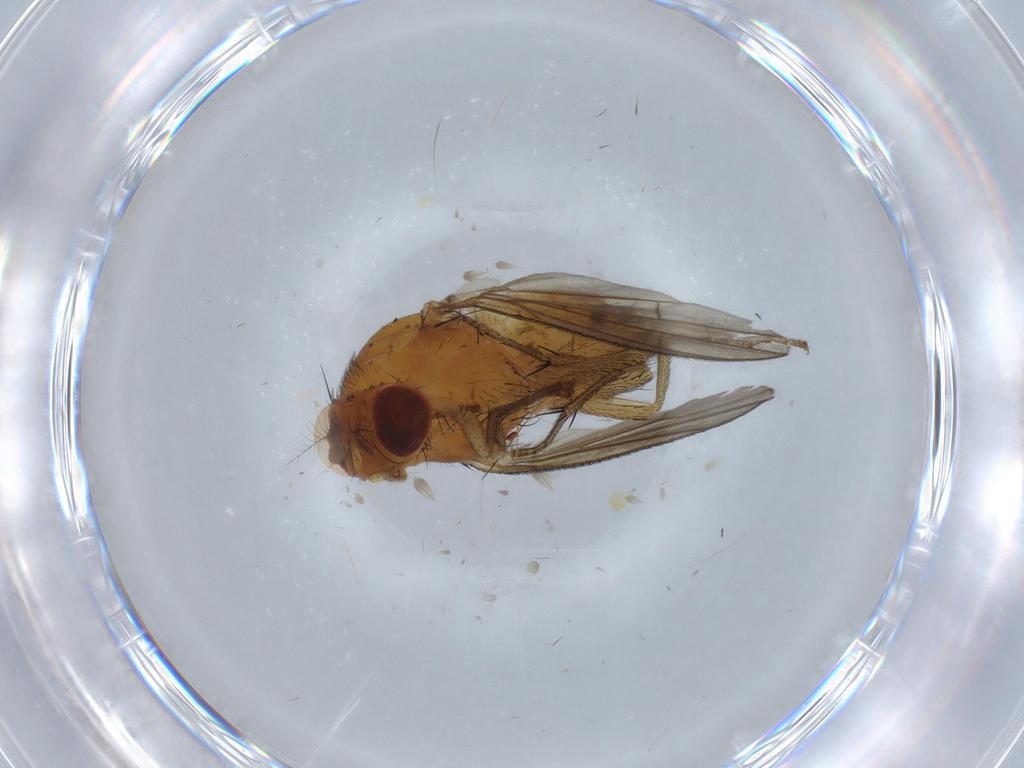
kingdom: Animalia
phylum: Arthropoda
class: Insecta
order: Diptera
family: Lauxaniidae
